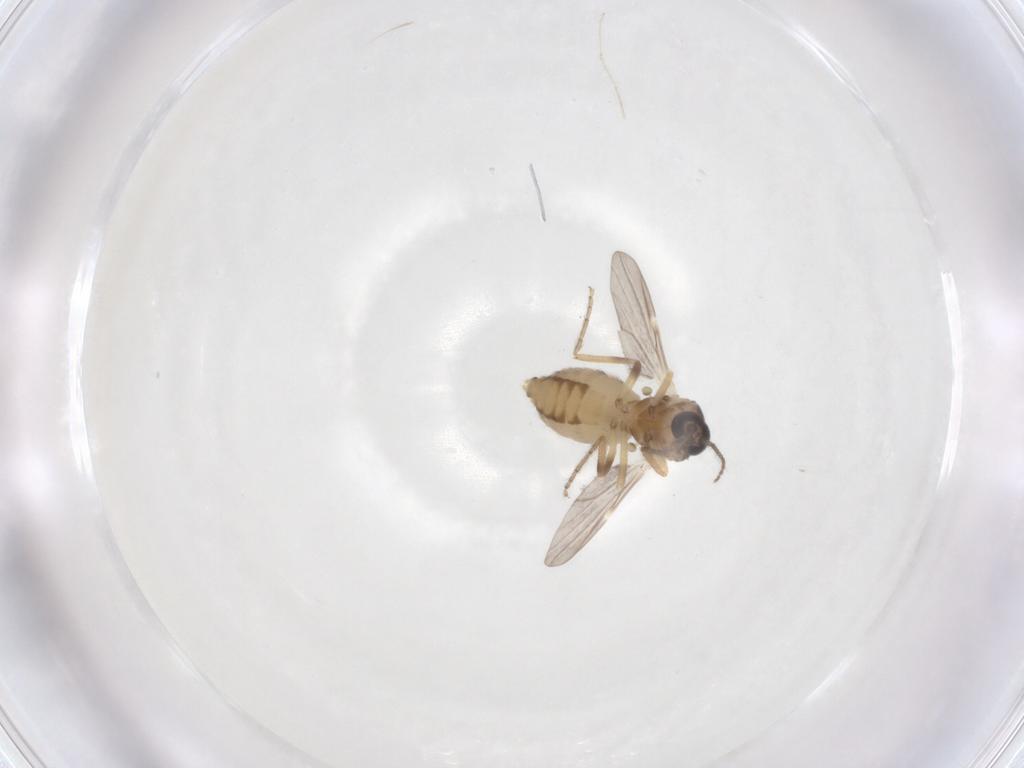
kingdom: Animalia
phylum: Arthropoda
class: Insecta
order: Diptera
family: Ceratopogonidae
